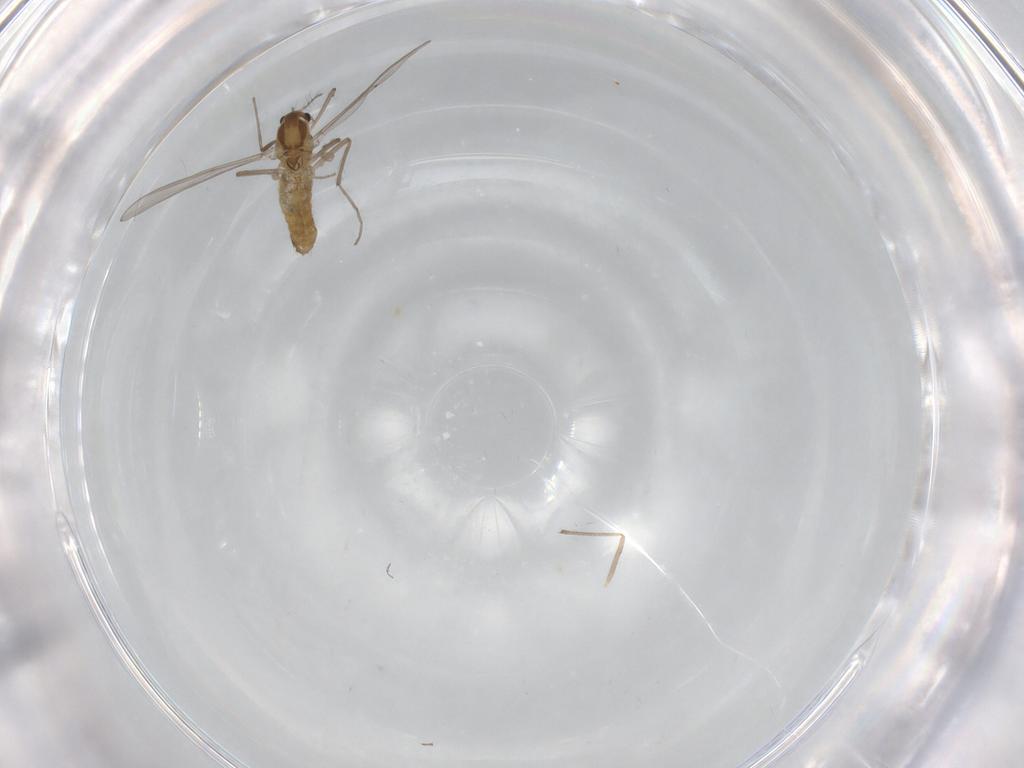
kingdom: Animalia
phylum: Arthropoda
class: Insecta
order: Diptera
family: Chironomidae
